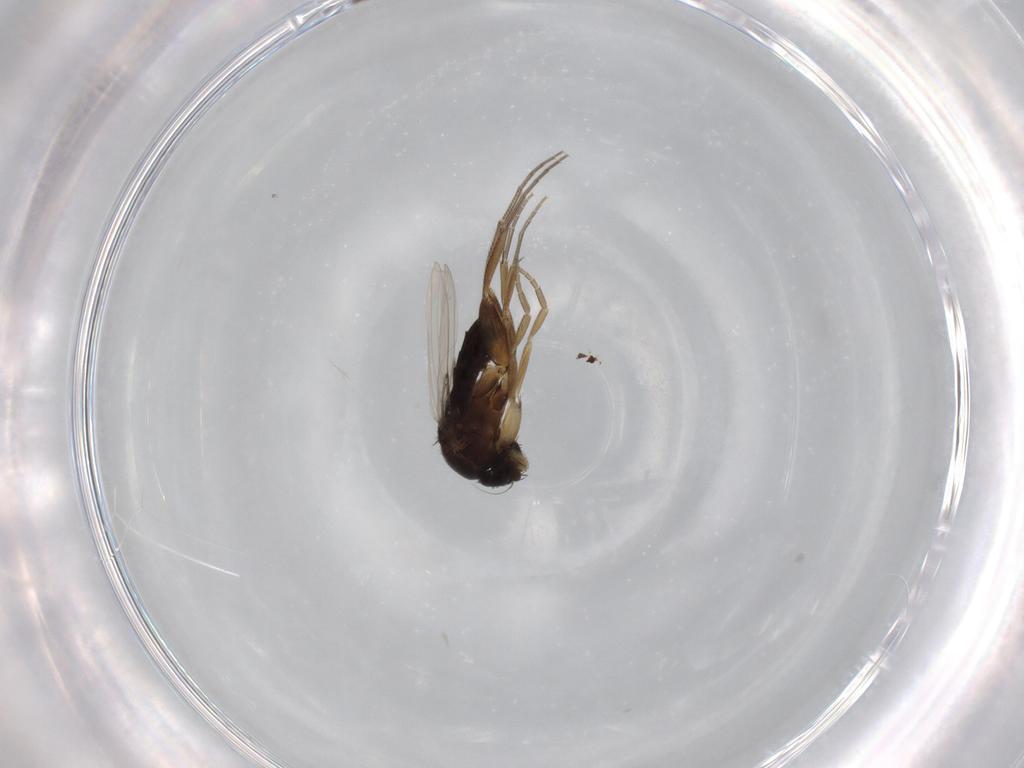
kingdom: Animalia
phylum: Arthropoda
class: Insecta
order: Diptera
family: Phoridae
